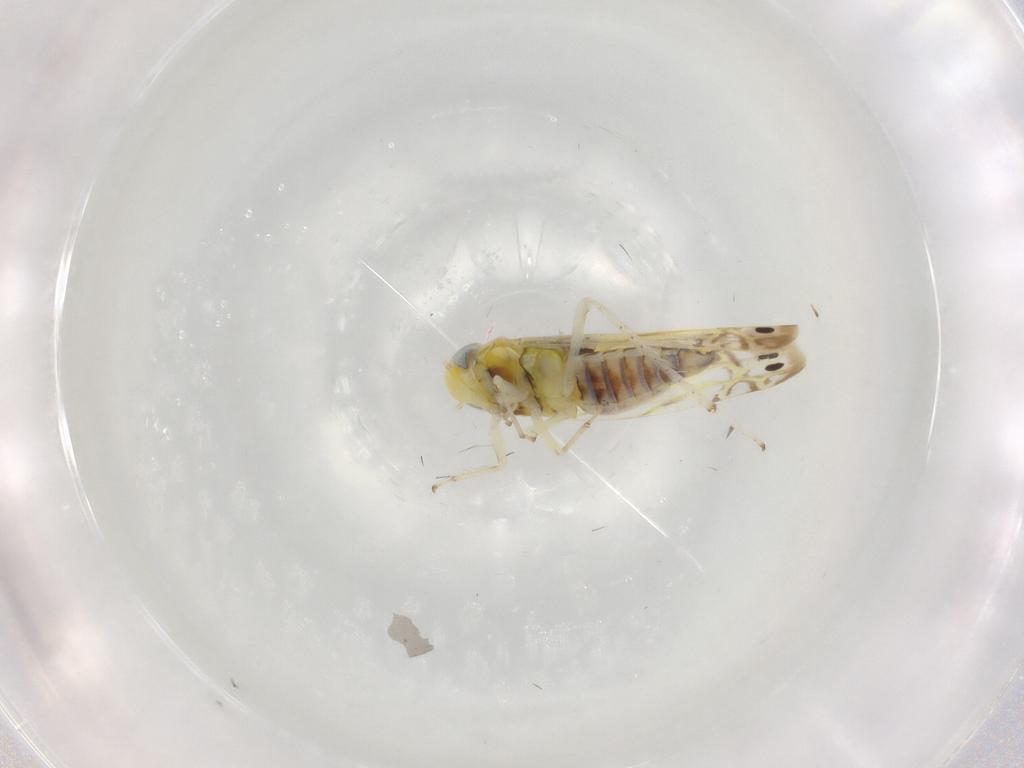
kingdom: Animalia
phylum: Arthropoda
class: Insecta
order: Hemiptera
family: Cicadellidae
